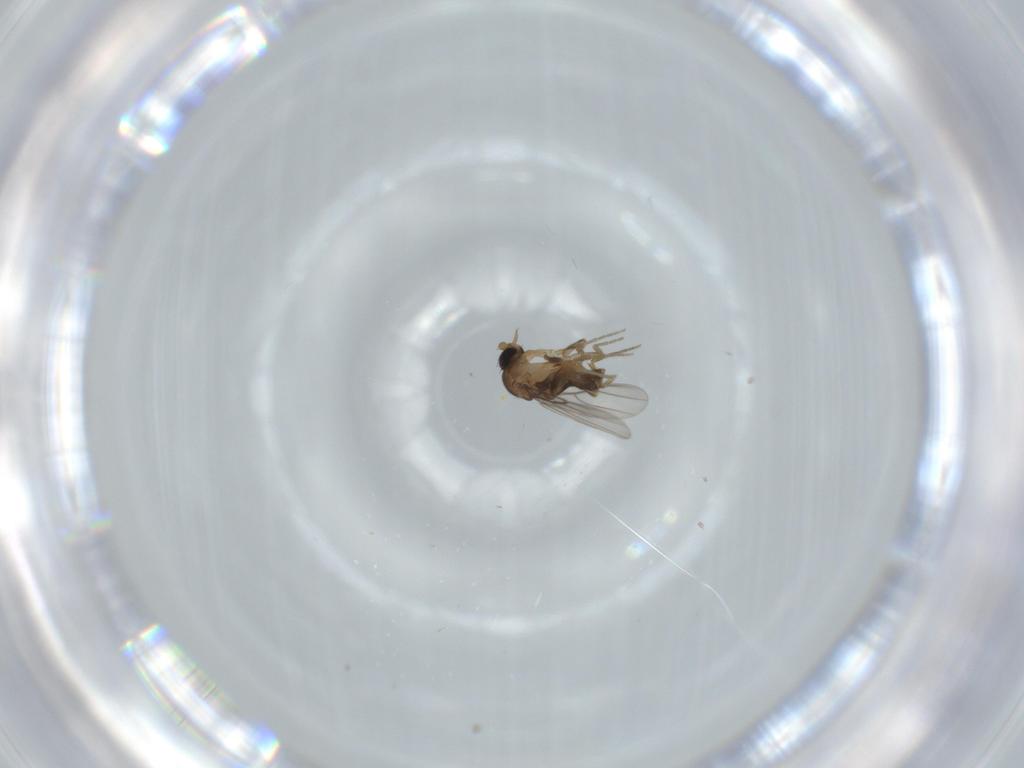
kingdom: Animalia
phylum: Arthropoda
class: Insecta
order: Diptera
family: Phoridae
